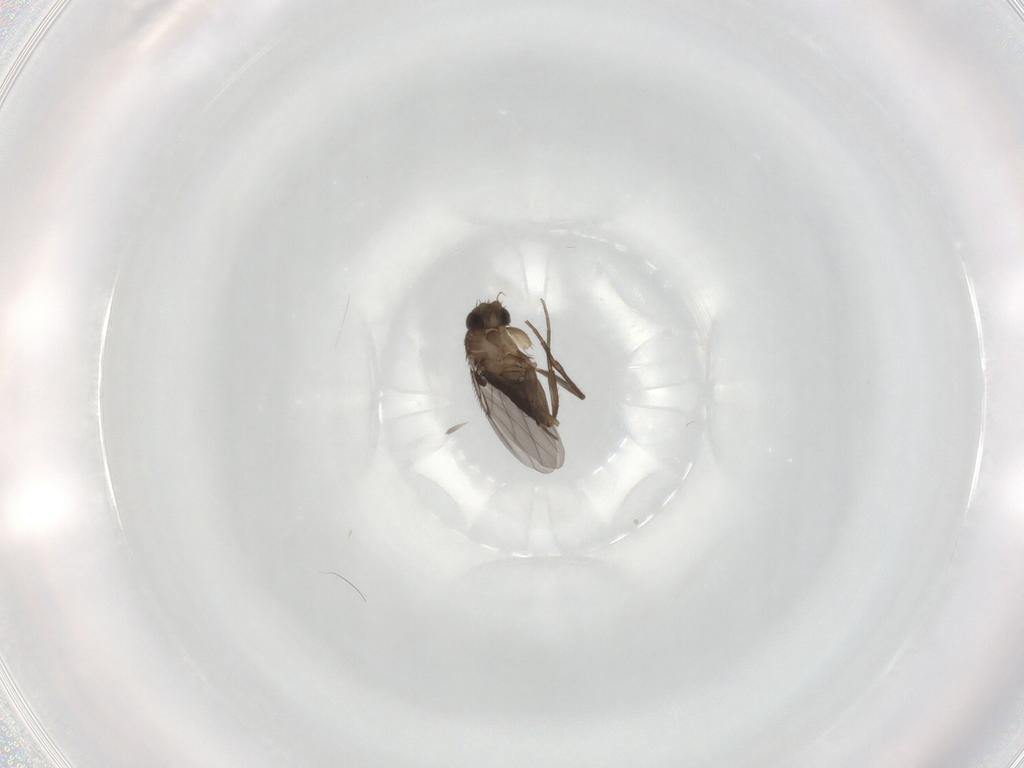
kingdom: Animalia
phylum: Arthropoda
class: Insecta
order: Diptera
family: Phoridae
